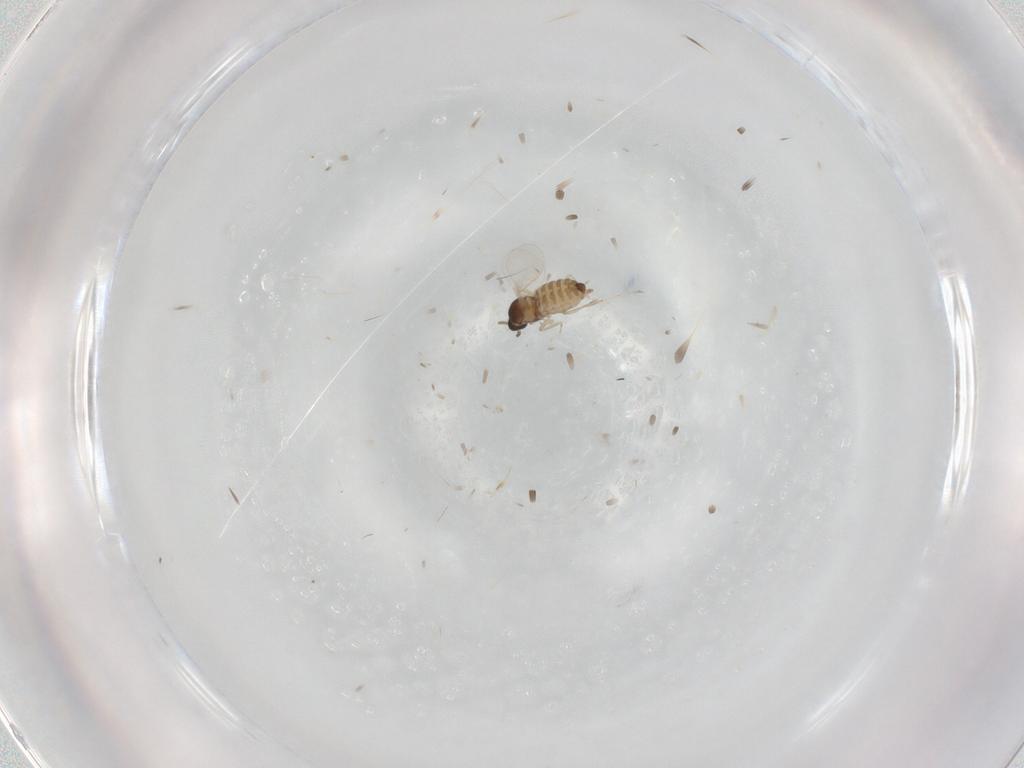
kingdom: Animalia
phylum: Arthropoda
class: Insecta
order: Diptera
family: Cecidomyiidae
